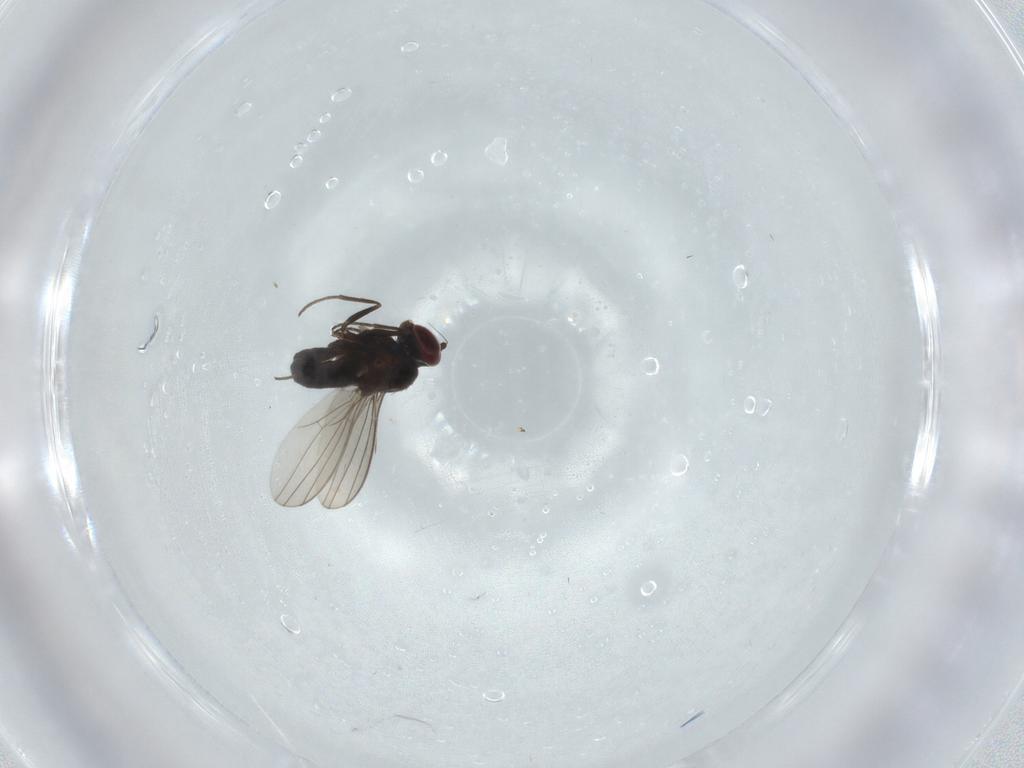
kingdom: Animalia
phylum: Arthropoda
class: Insecta
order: Diptera
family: Dolichopodidae
